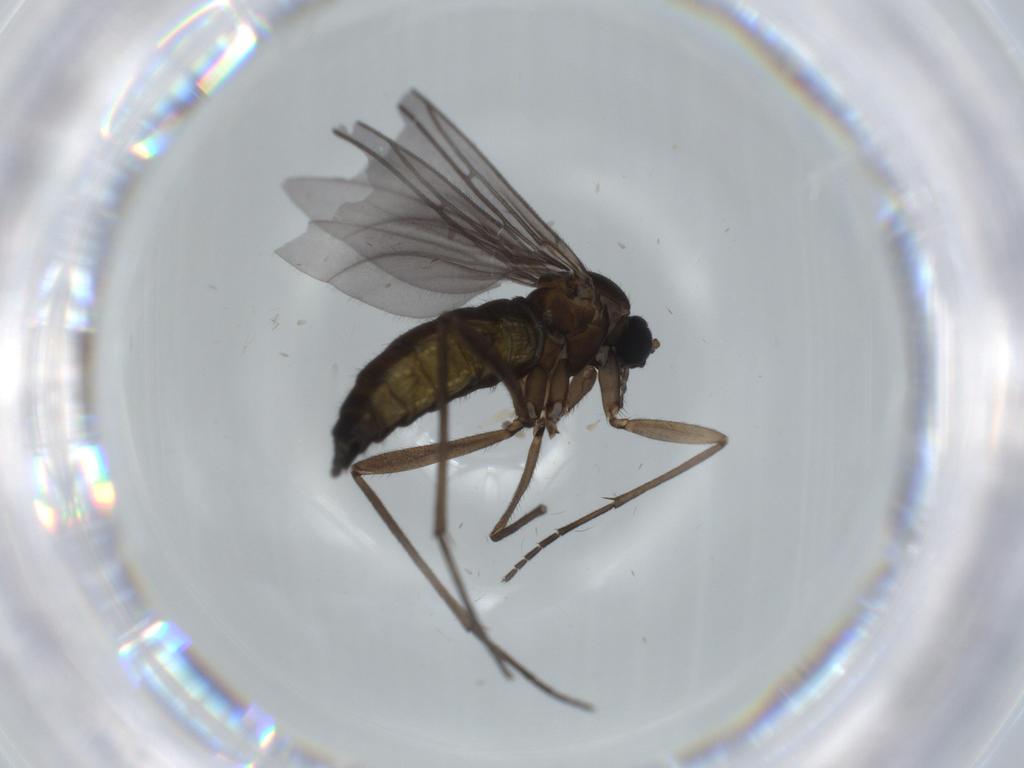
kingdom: Animalia
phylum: Arthropoda
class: Insecta
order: Diptera
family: Sciaridae
